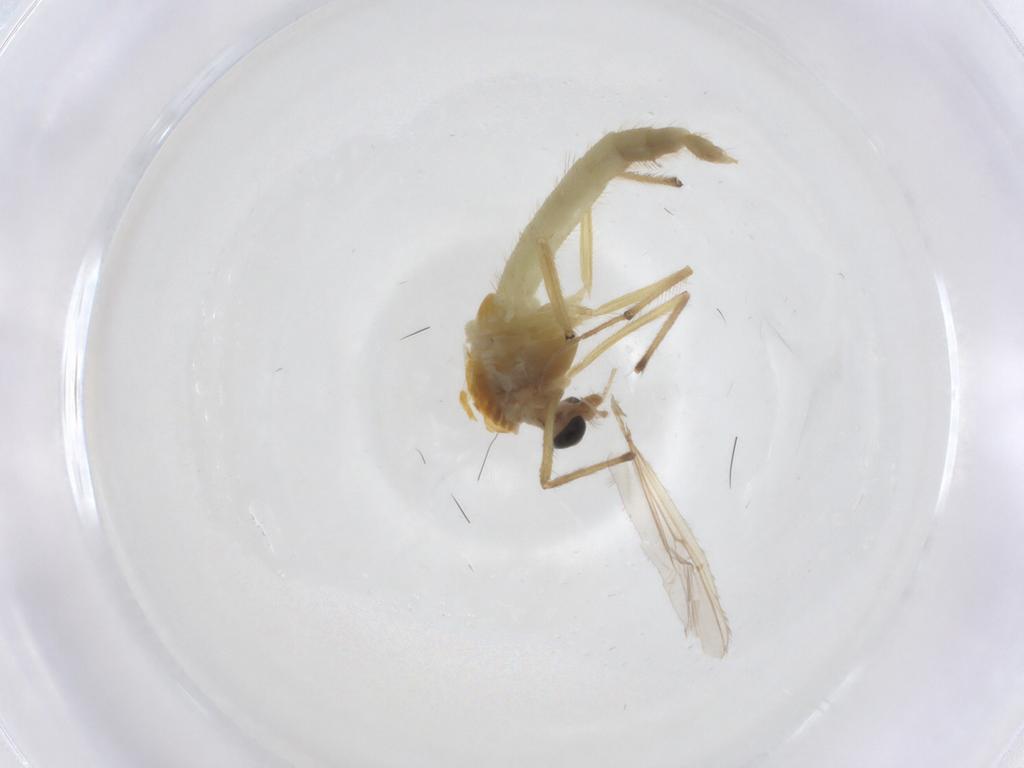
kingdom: Animalia
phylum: Arthropoda
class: Insecta
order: Diptera
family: Chironomidae
